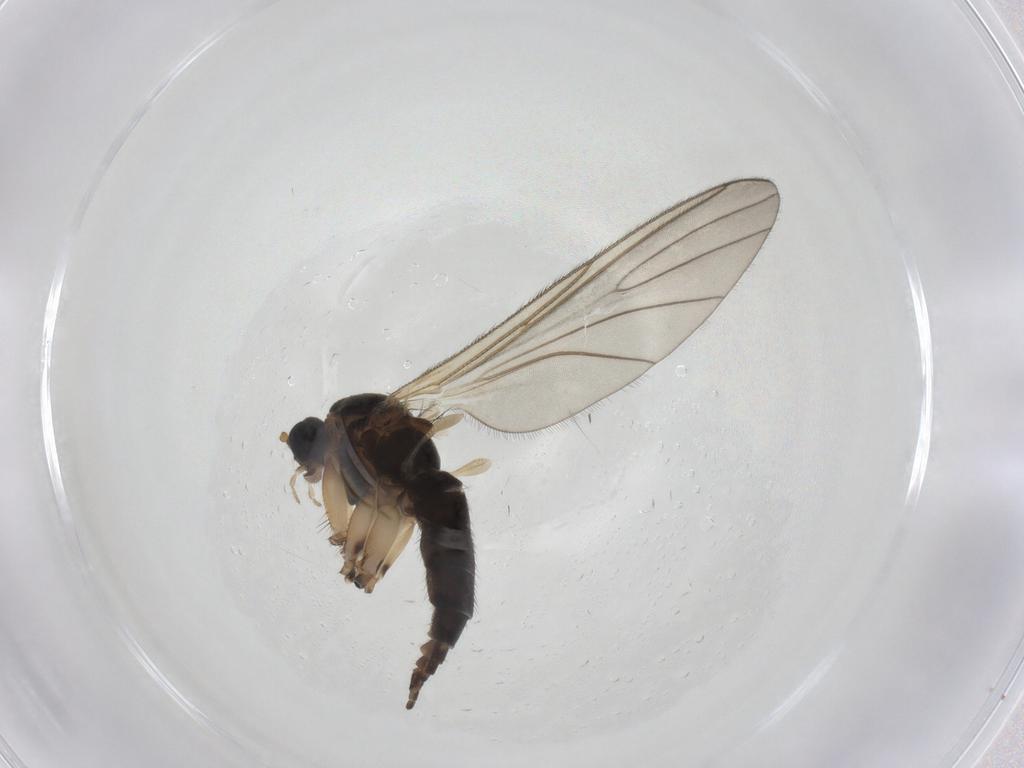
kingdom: Animalia
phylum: Arthropoda
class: Insecta
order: Diptera
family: Sciaridae
